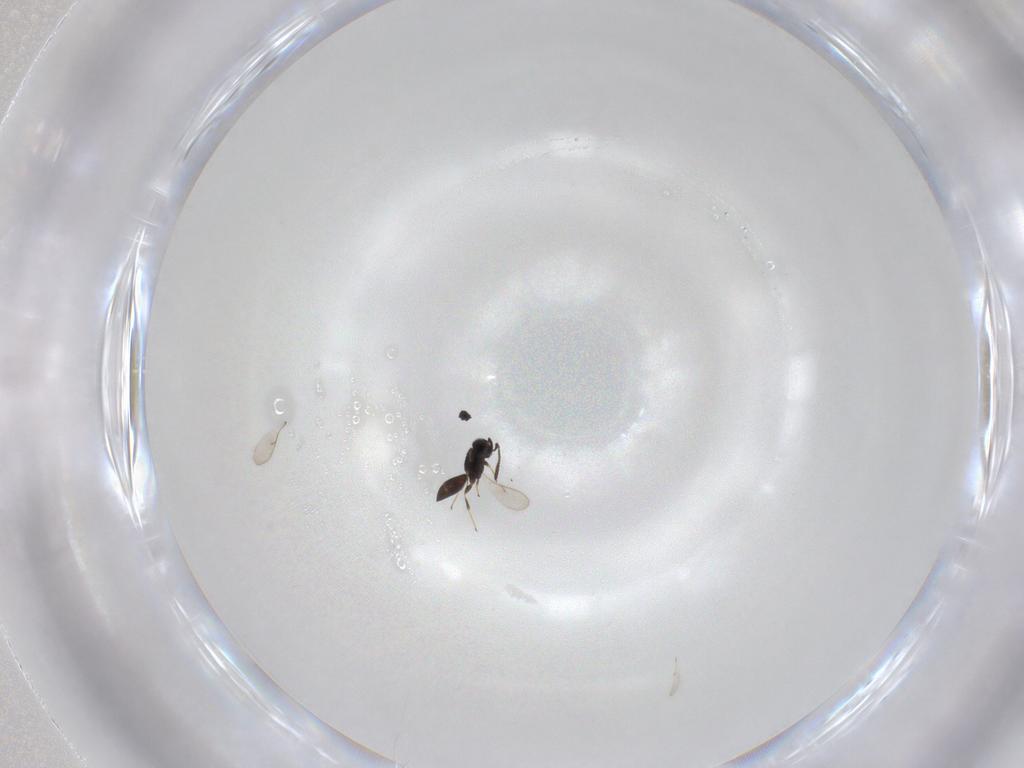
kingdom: Animalia
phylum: Arthropoda
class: Insecta
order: Hymenoptera
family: Scelionidae
